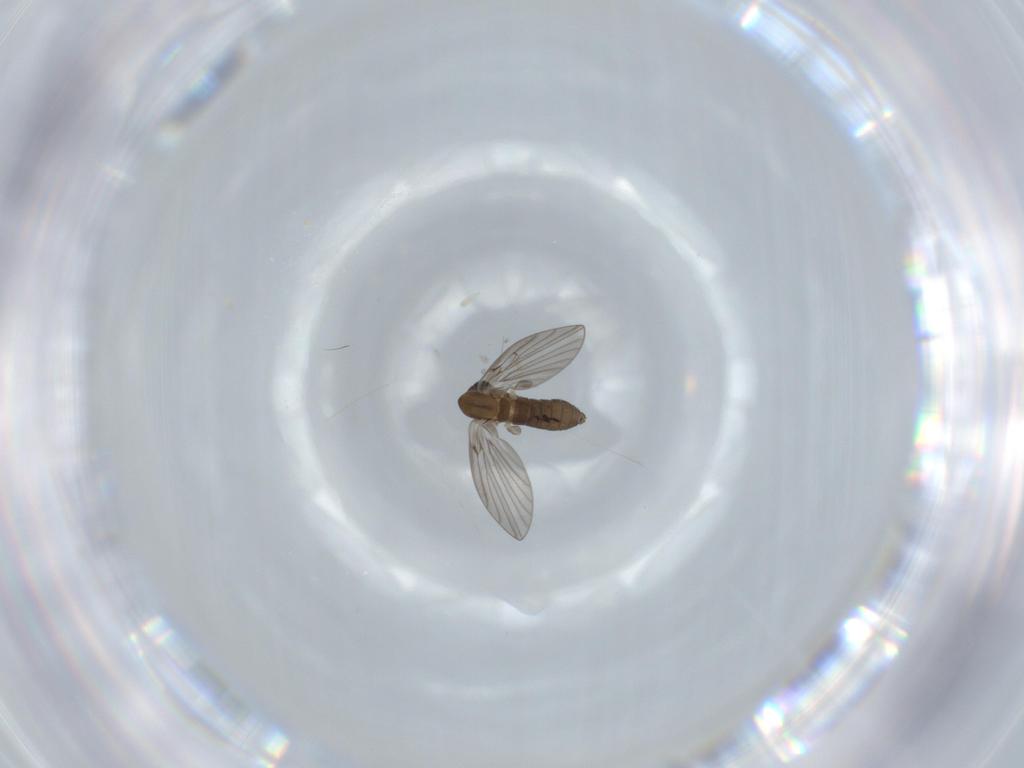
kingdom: Animalia
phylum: Arthropoda
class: Insecta
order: Diptera
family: Psychodidae
